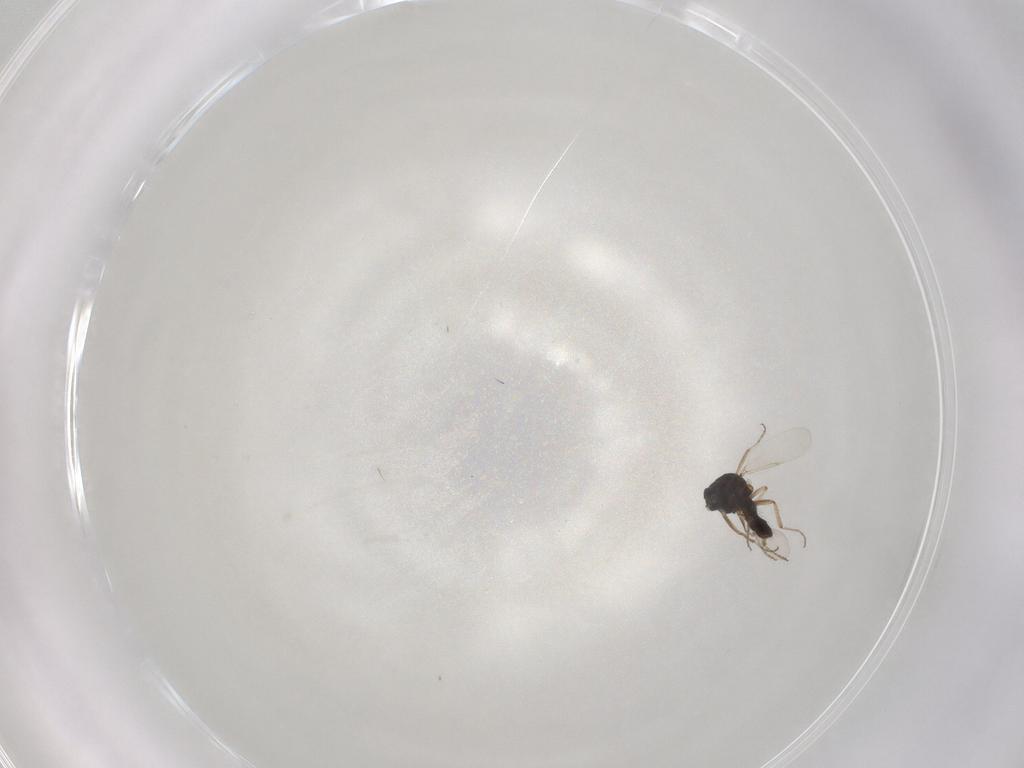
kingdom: Animalia
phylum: Arthropoda
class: Insecta
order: Diptera
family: Ceratopogonidae
